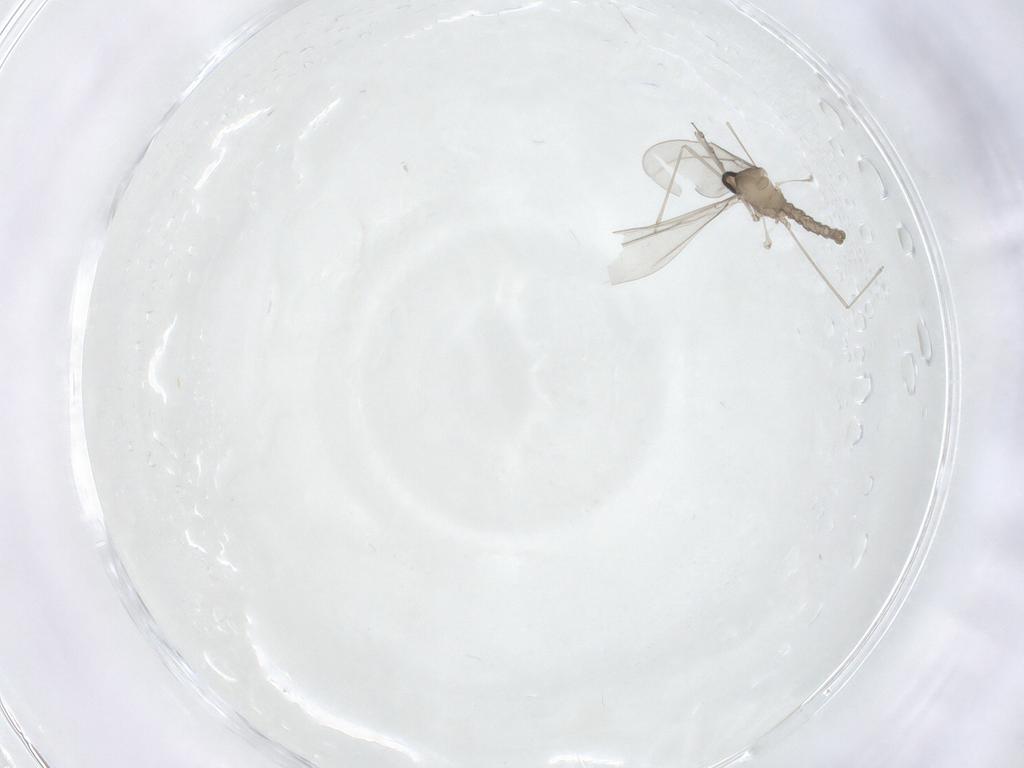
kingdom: Animalia
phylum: Arthropoda
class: Insecta
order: Diptera
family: Cecidomyiidae
